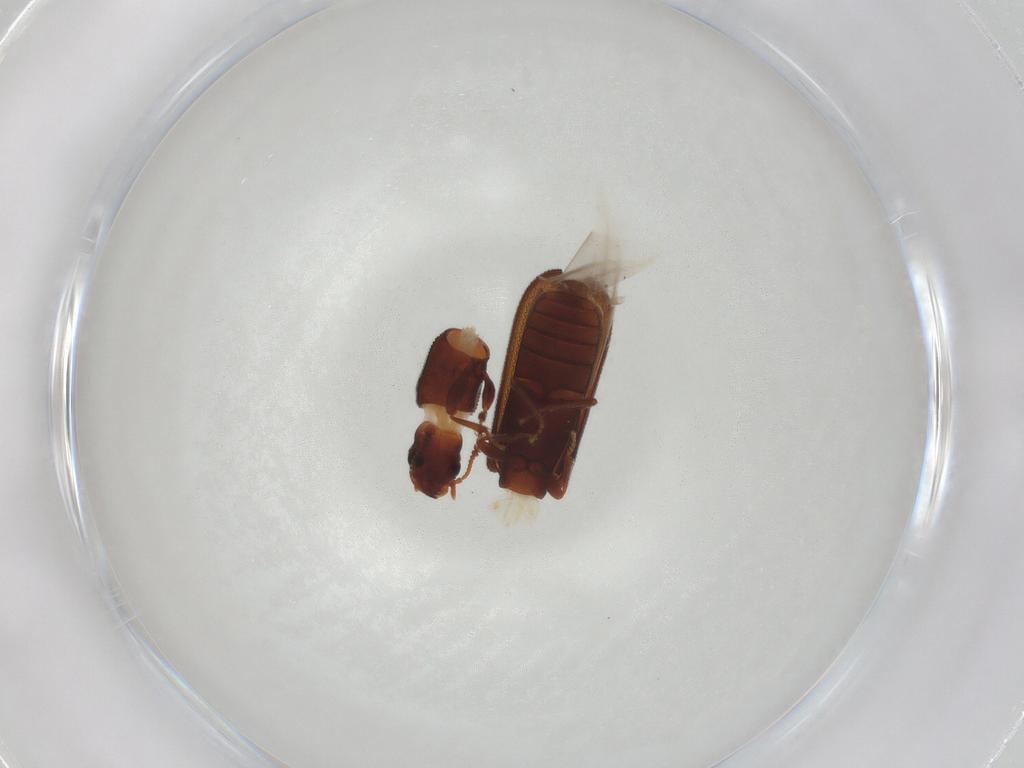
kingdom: Animalia
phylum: Arthropoda
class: Insecta
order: Coleoptera
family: Zopheridae
